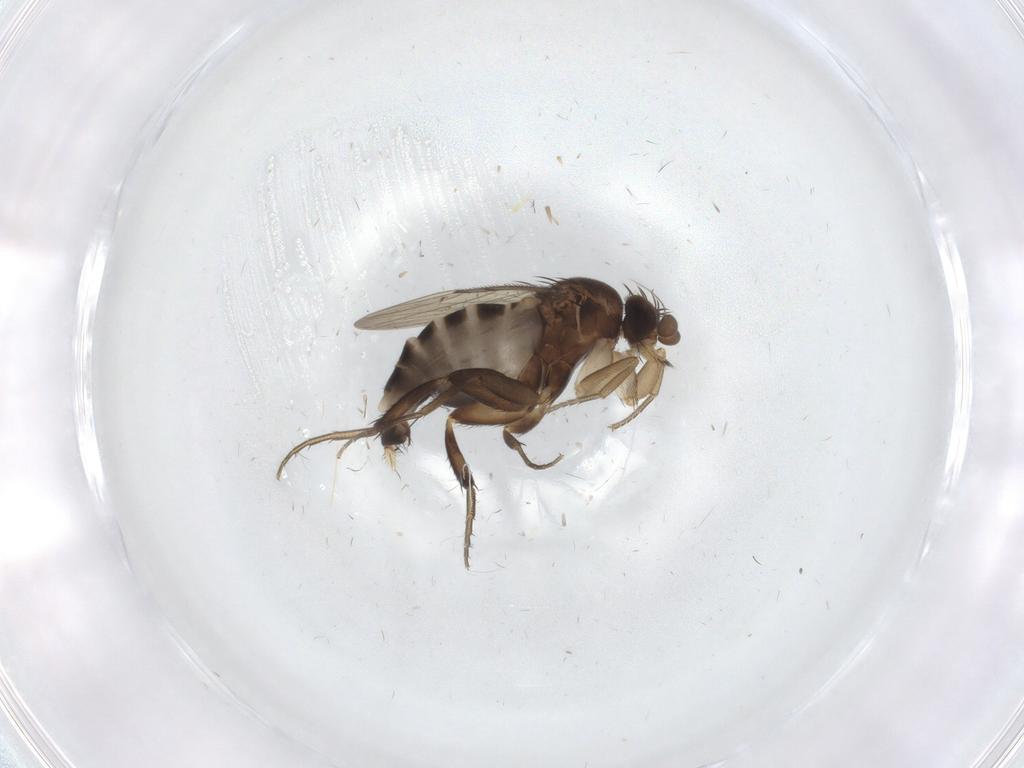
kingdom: Animalia
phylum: Arthropoda
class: Insecta
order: Diptera
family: Phoridae
